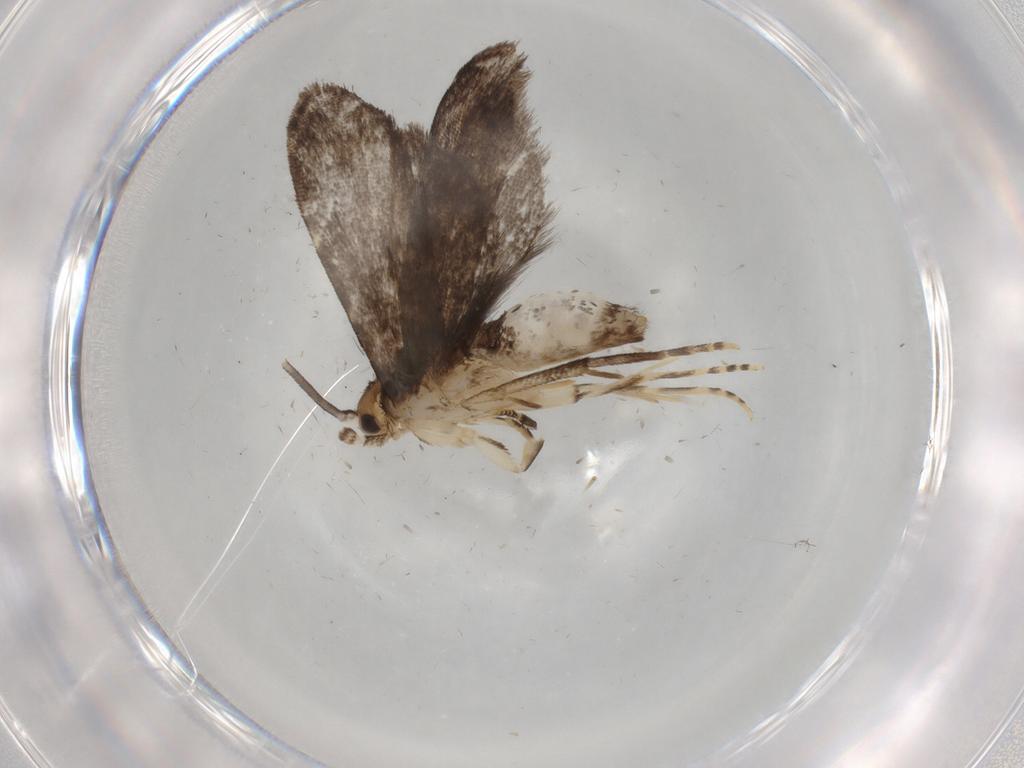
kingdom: Animalia
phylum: Arthropoda
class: Insecta
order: Lepidoptera
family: Dryadaulidae
